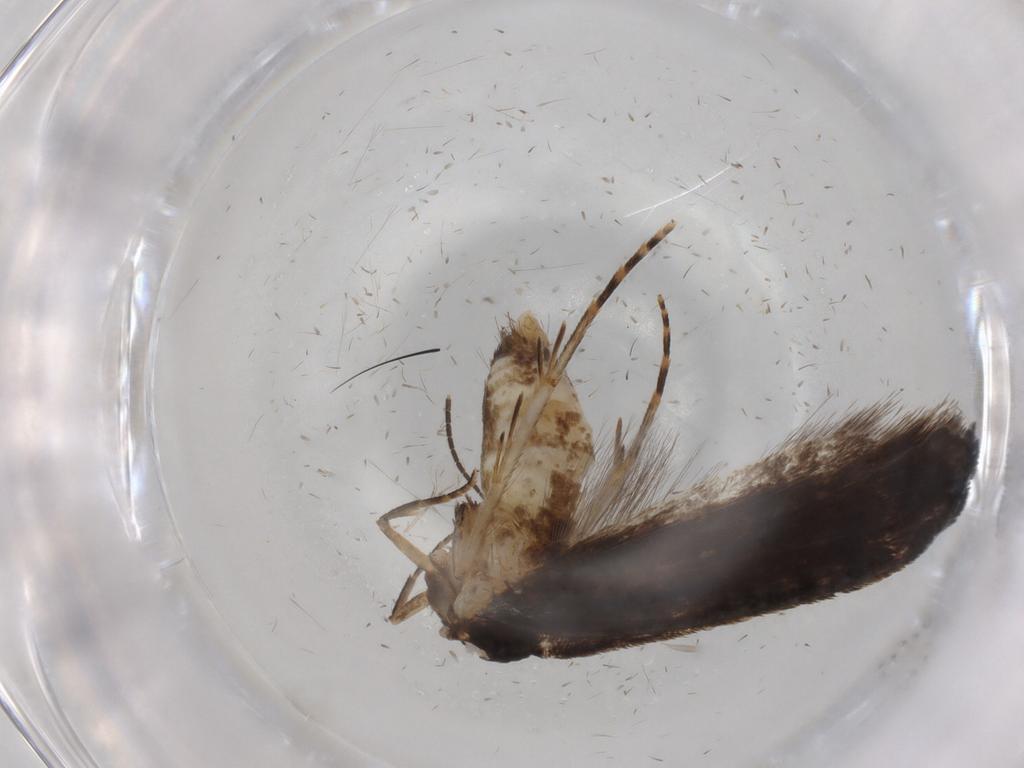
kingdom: Animalia
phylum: Arthropoda
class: Insecta
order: Lepidoptera
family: Gelechiidae
